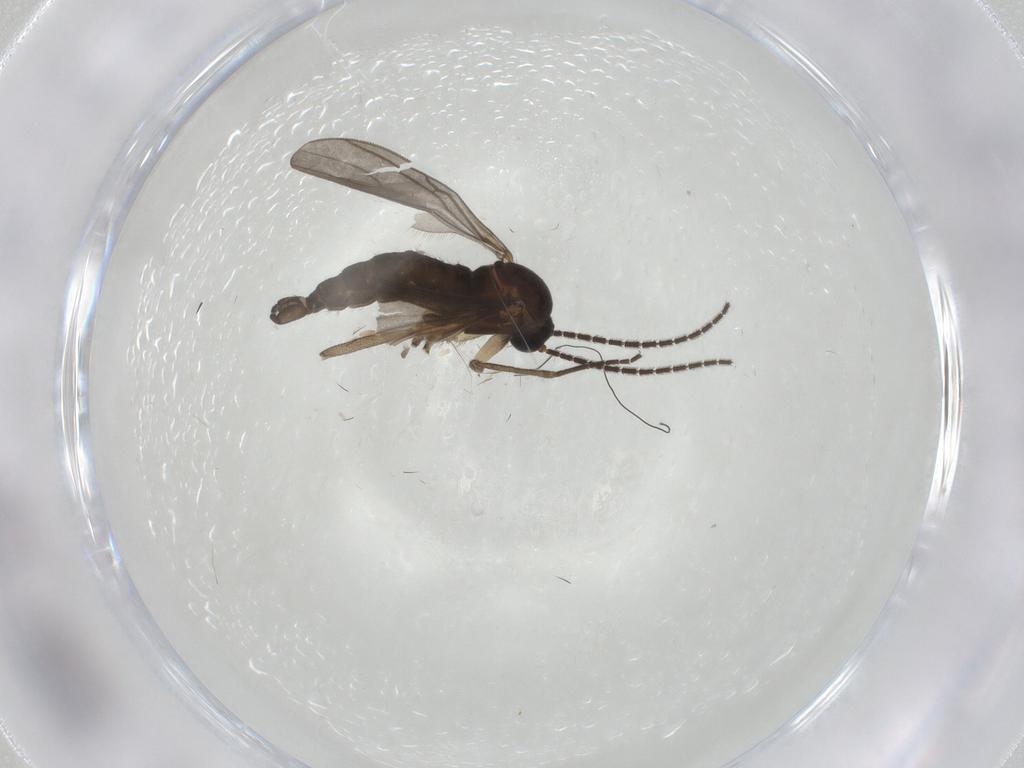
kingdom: Animalia
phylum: Arthropoda
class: Insecta
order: Diptera
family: Sciaridae
